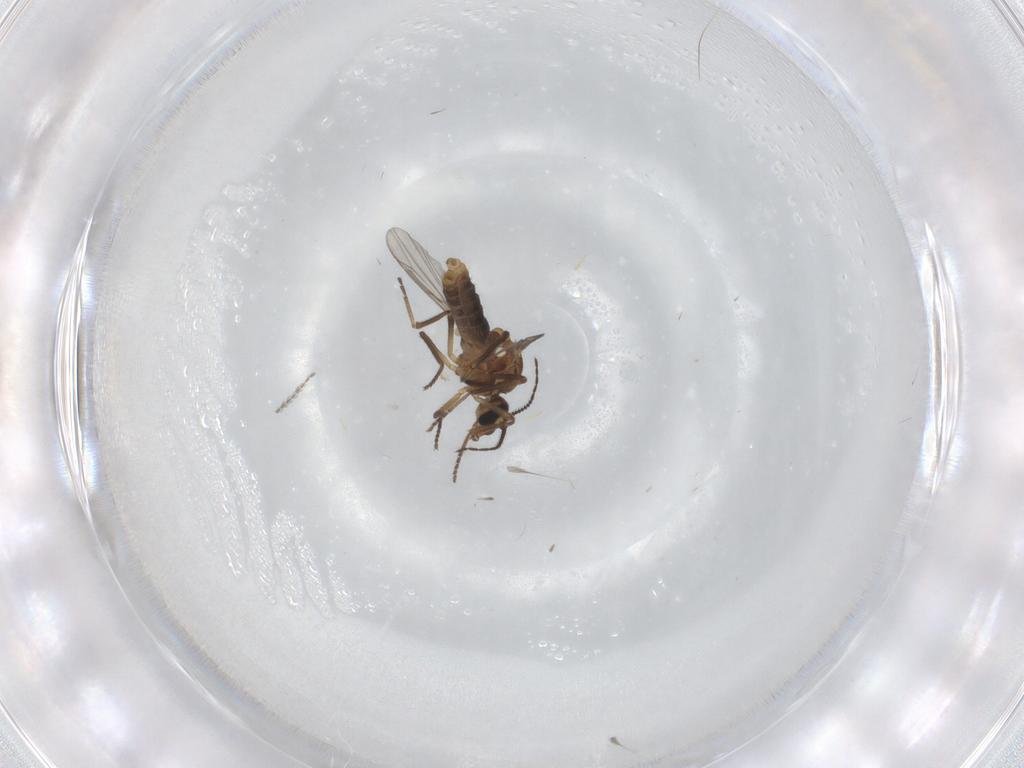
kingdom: Animalia
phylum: Arthropoda
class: Insecta
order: Diptera
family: Ceratopogonidae
